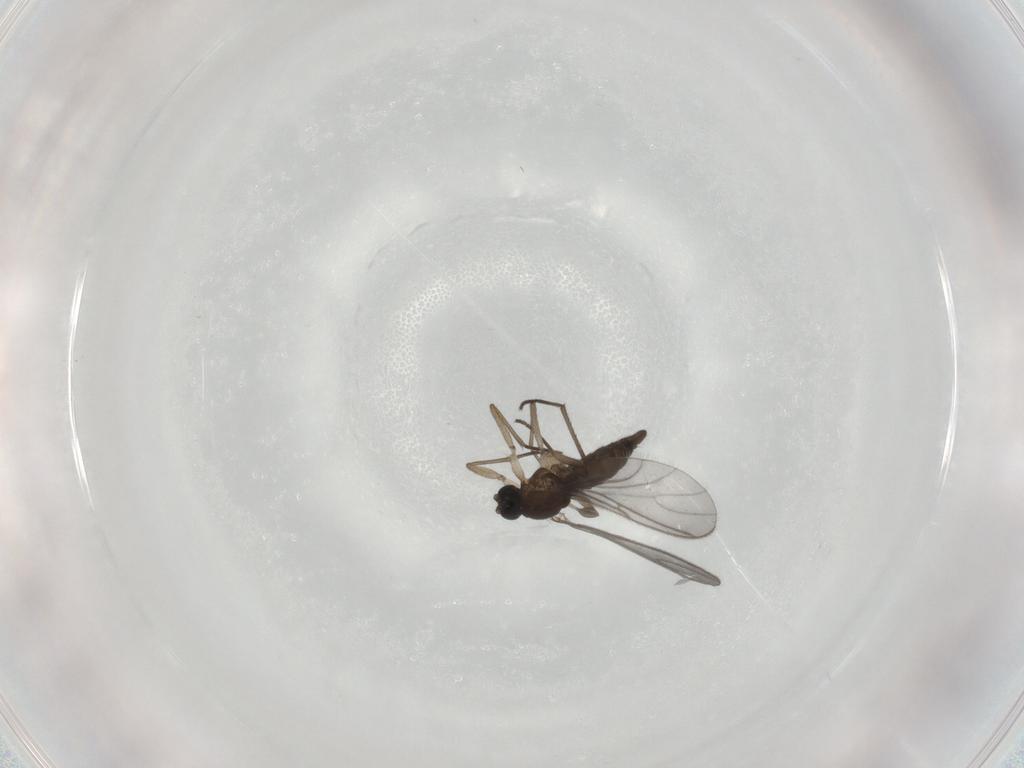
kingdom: Animalia
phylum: Arthropoda
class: Insecta
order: Diptera
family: Sciaridae
